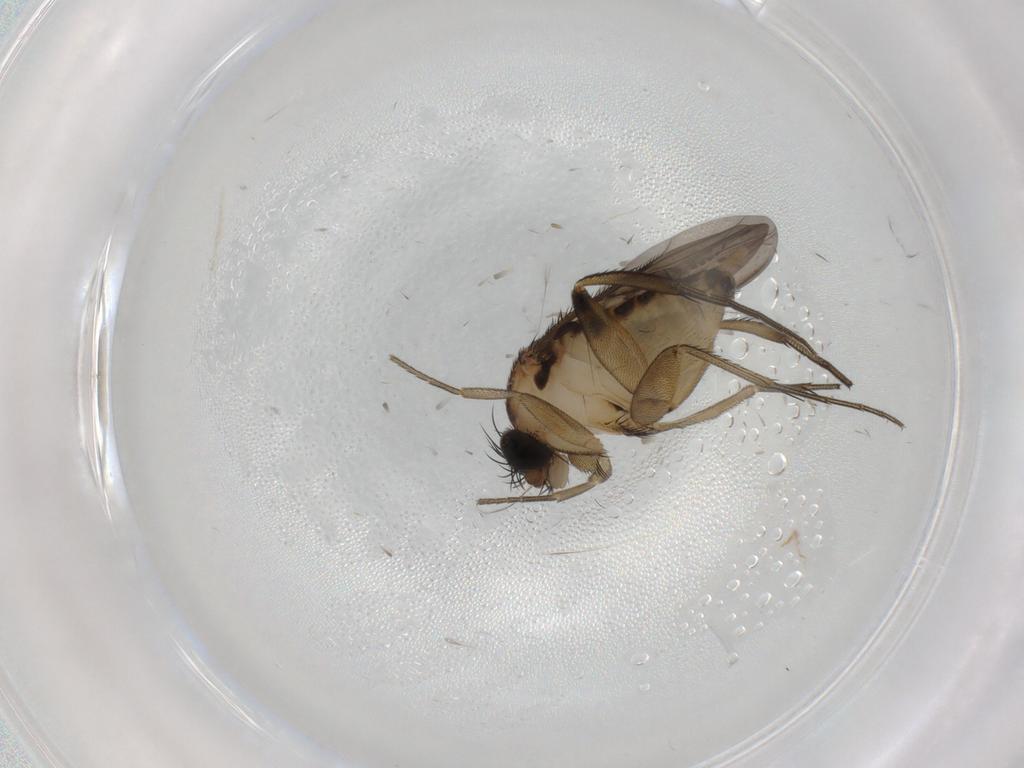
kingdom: Animalia
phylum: Arthropoda
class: Insecta
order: Diptera
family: Phoridae
